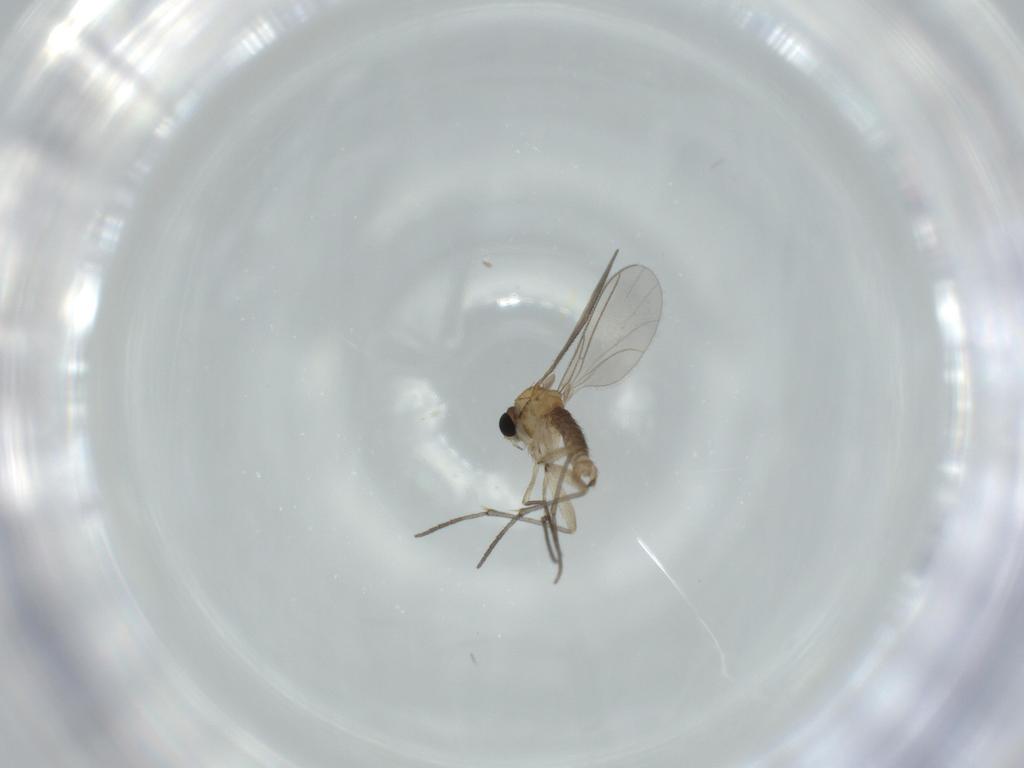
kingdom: Animalia
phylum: Arthropoda
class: Insecta
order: Diptera
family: Sciaridae
